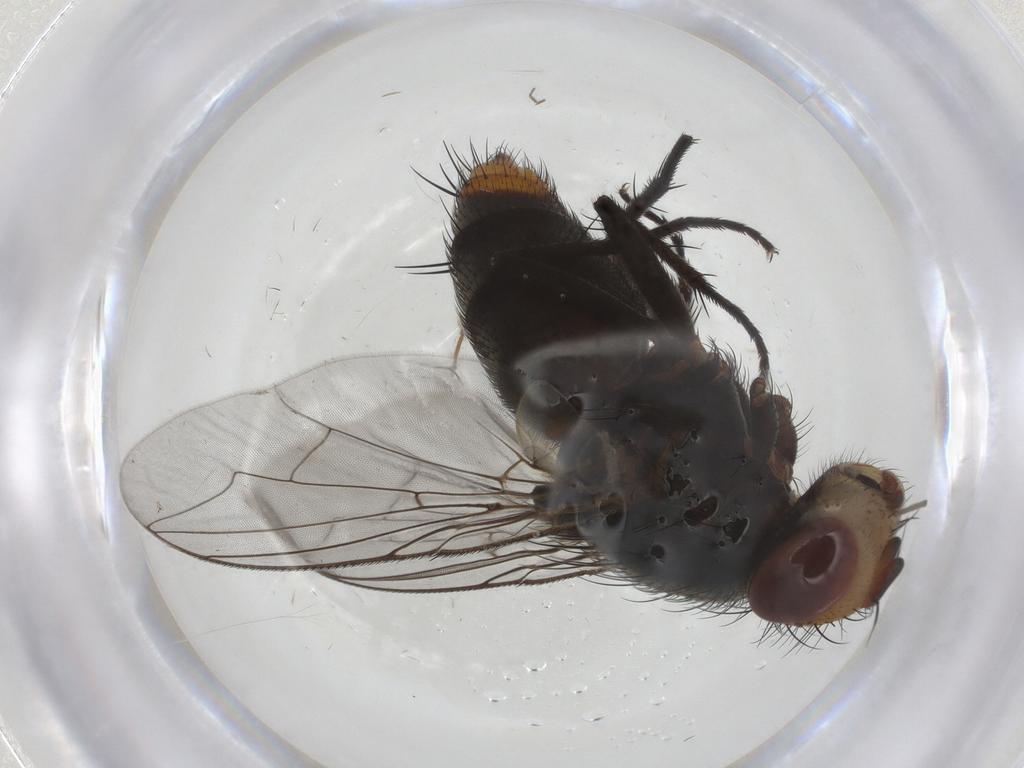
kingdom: Animalia
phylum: Arthropoda
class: Insecta
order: Diptera
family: Sarcophagidae
